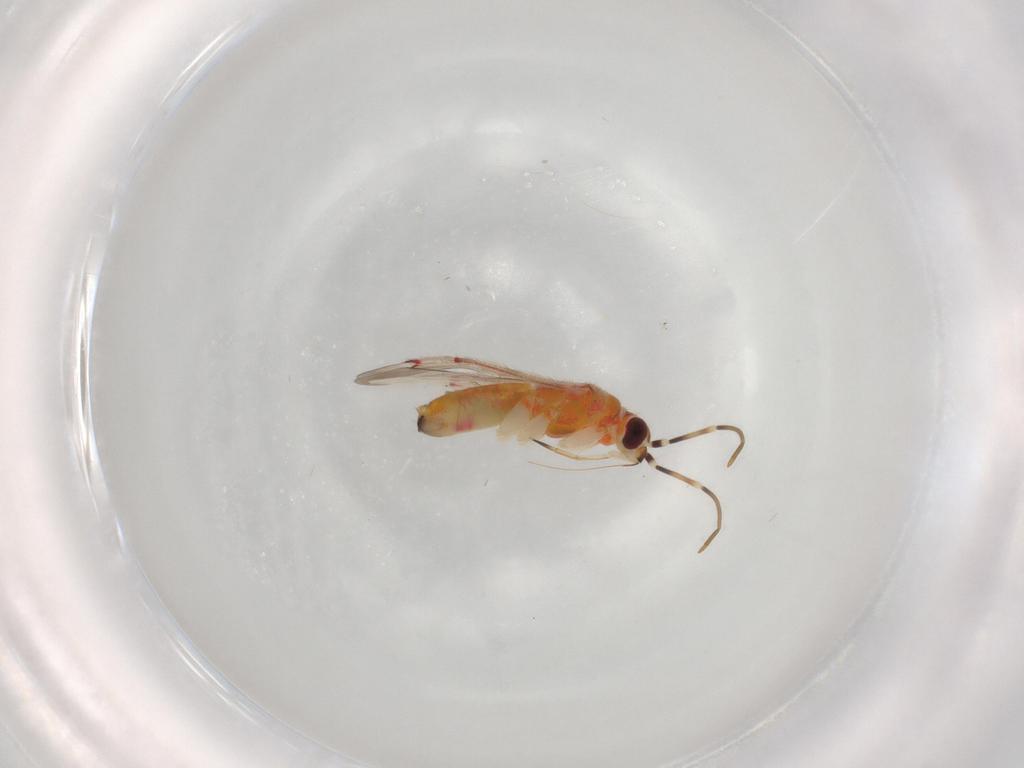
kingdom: Animalia
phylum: Arthropoda
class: Insecta
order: Hemiptera
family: Miridae
